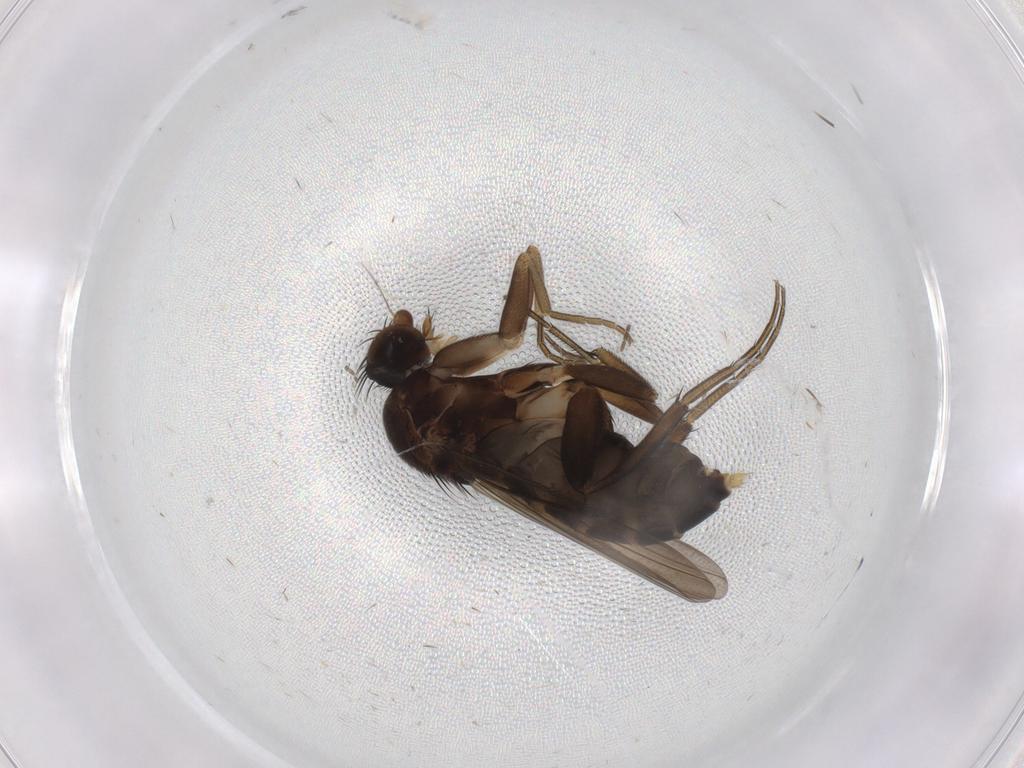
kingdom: Animalia
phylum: Arthropoda
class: Insecta
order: Diptera
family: Phoridae
